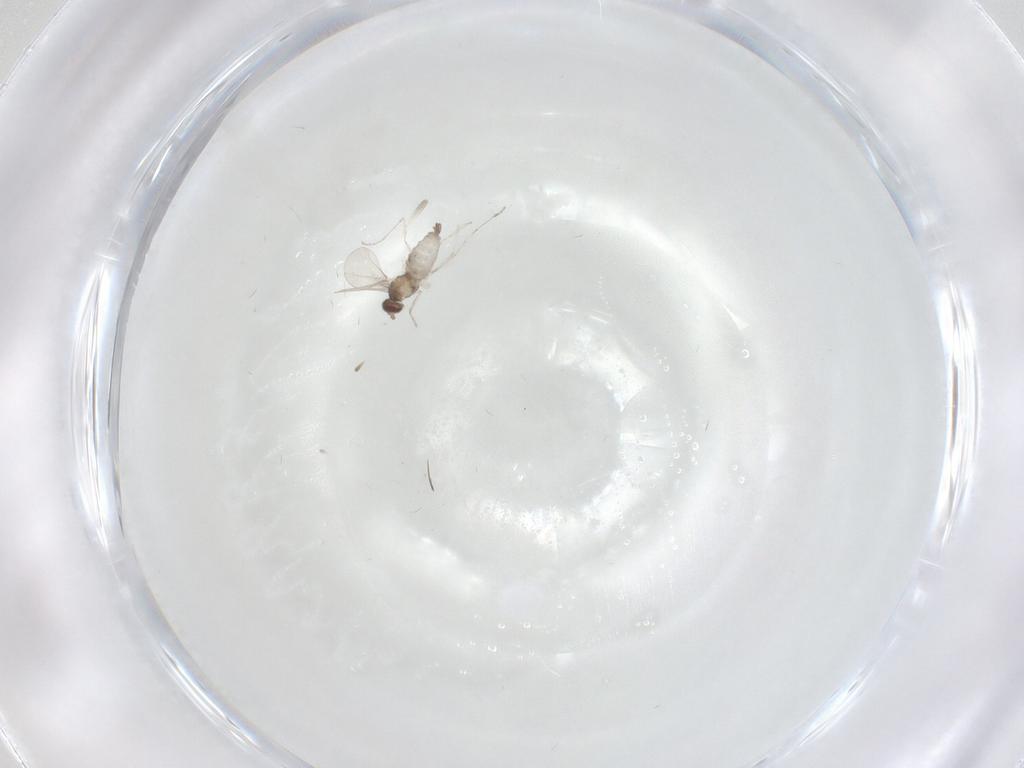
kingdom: Animalia
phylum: Arthropoda
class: Insecta
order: Diptera
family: Cecidomyiidae
